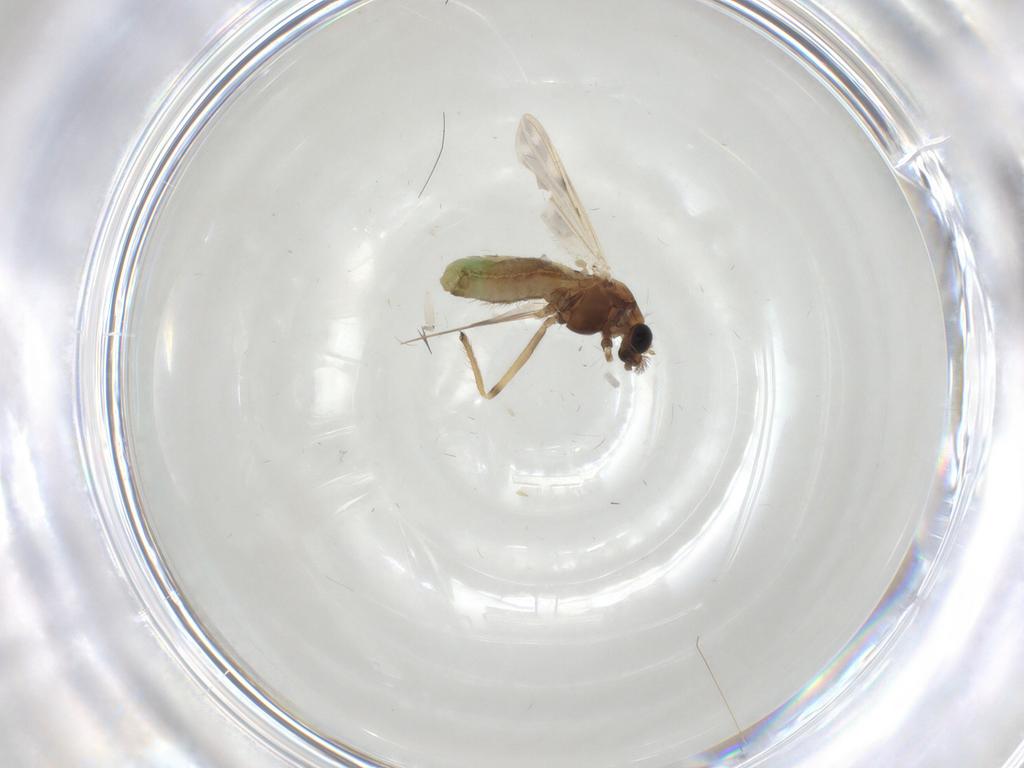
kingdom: Animalia
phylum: Arthropoda
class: Insecta
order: Diptera
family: Chironomidae
